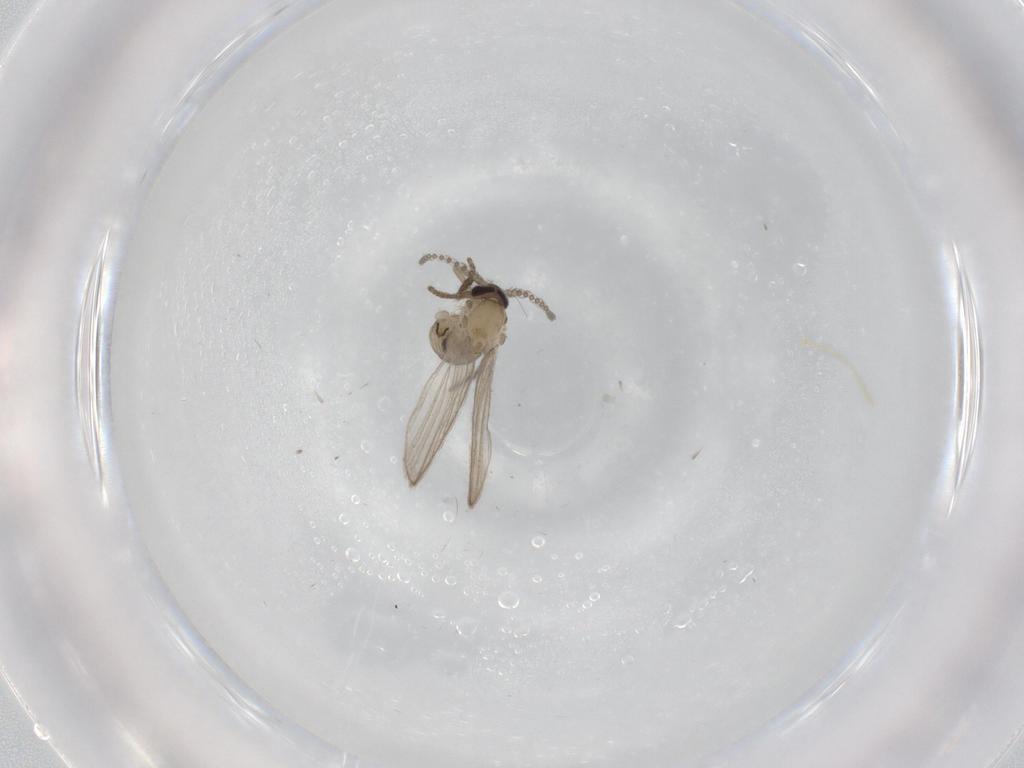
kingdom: Animalia
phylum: Arthropoda
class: Insecta
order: Diptera
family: Psychodidae
